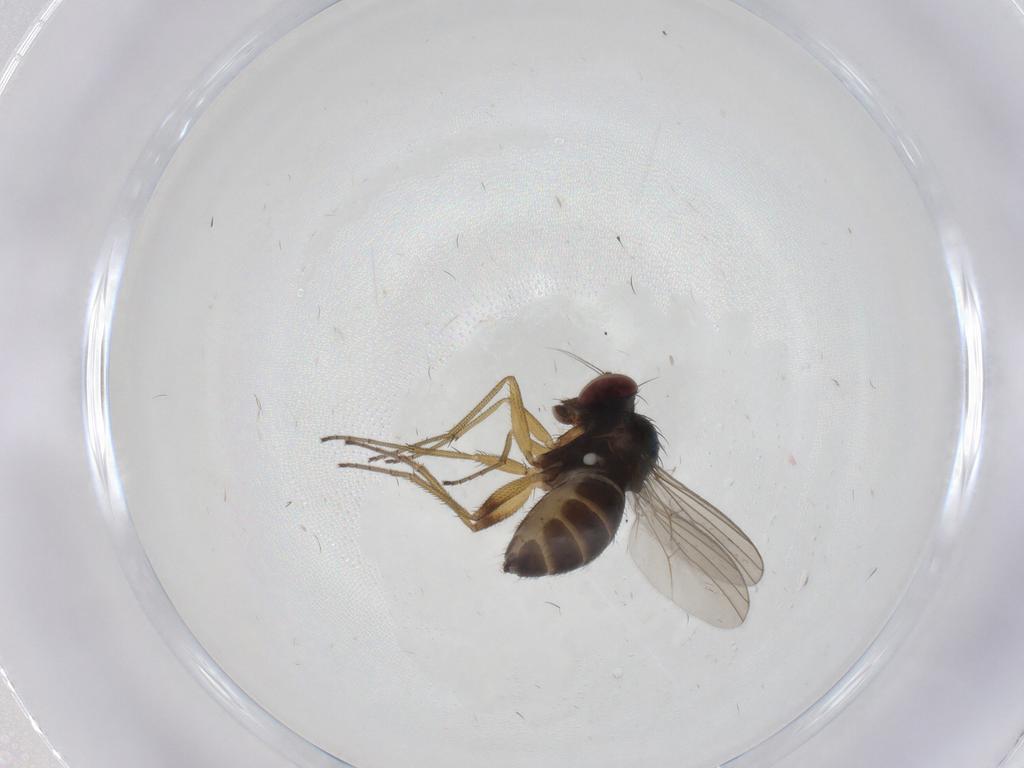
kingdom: Animalia
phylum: Arthropoda
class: Insecta
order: Diptera
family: Dolichopodidae
